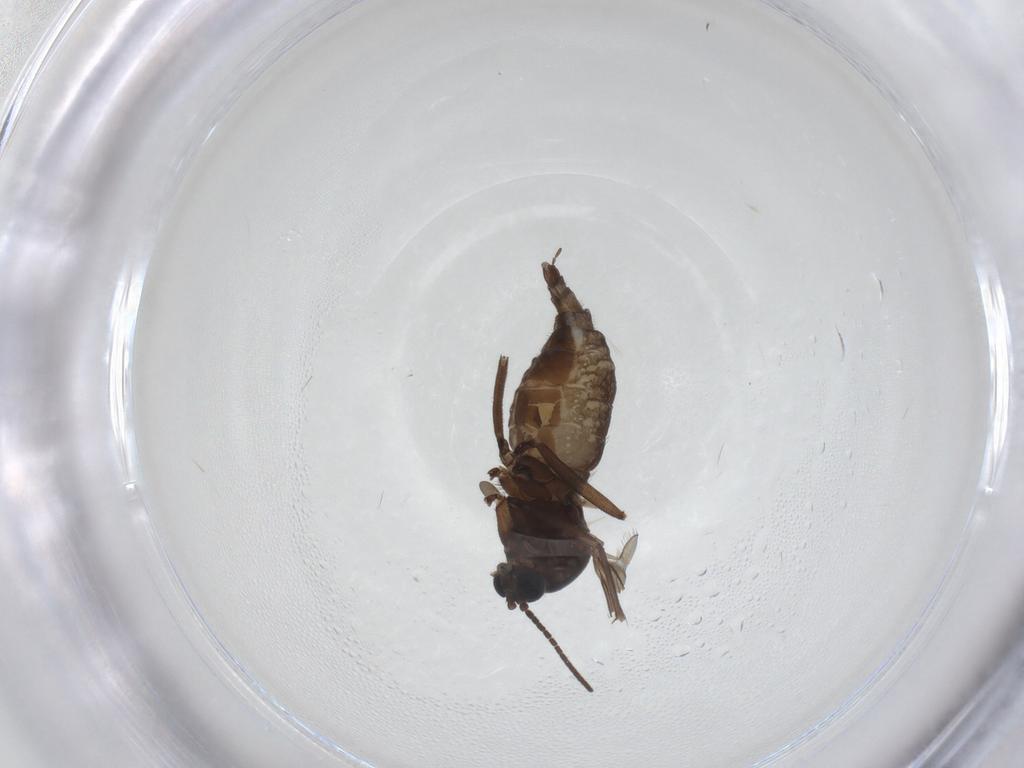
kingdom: Animalia
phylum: Arthropoda
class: Insecta
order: Diptera
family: Sciaridae
